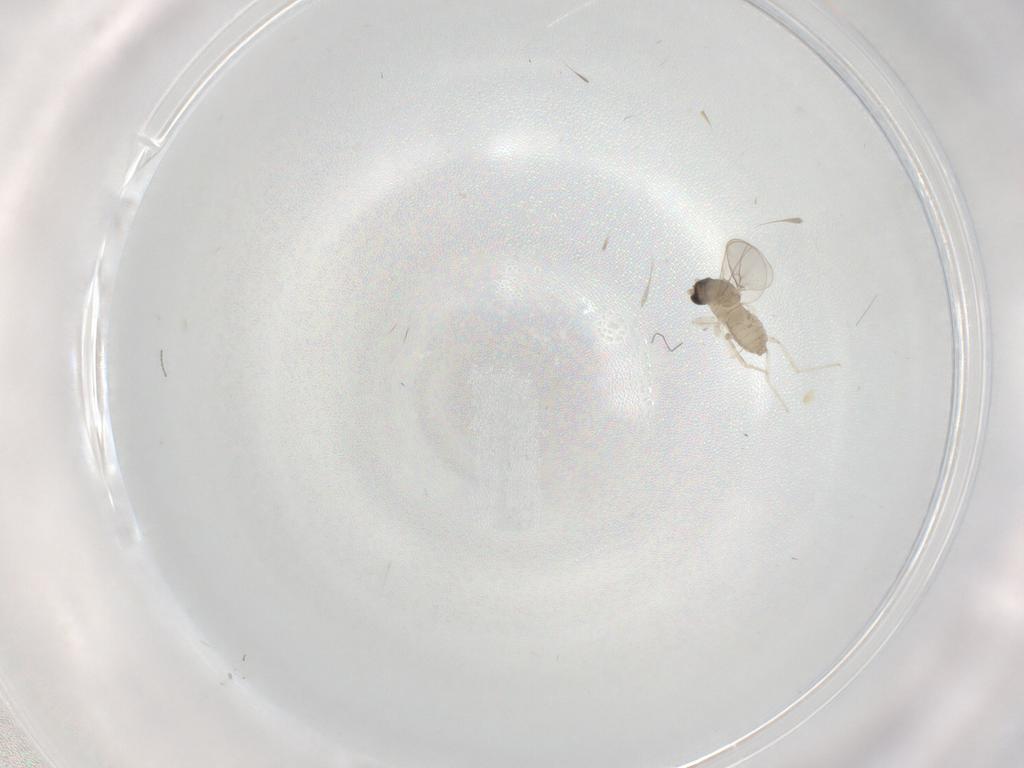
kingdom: Animalia
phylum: Arthropoda
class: Insecta
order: Diptera
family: Cecidomyiidae
